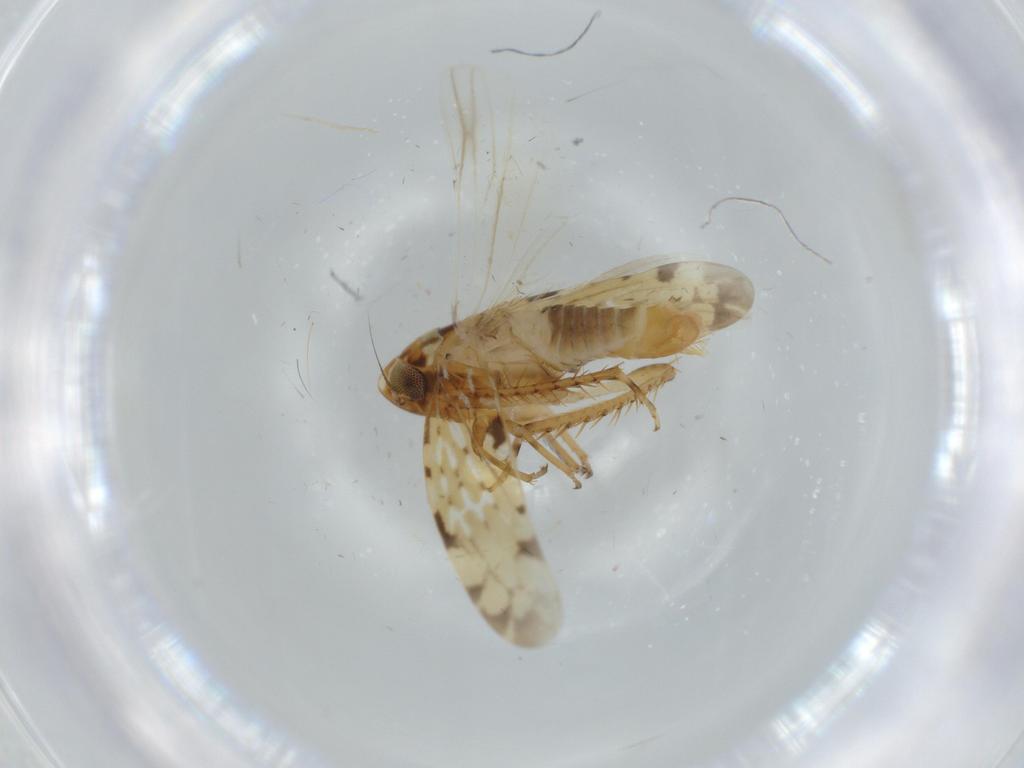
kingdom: Animalia
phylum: Arthropoda
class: Insecta
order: Hemiptera
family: Cicadellidae
